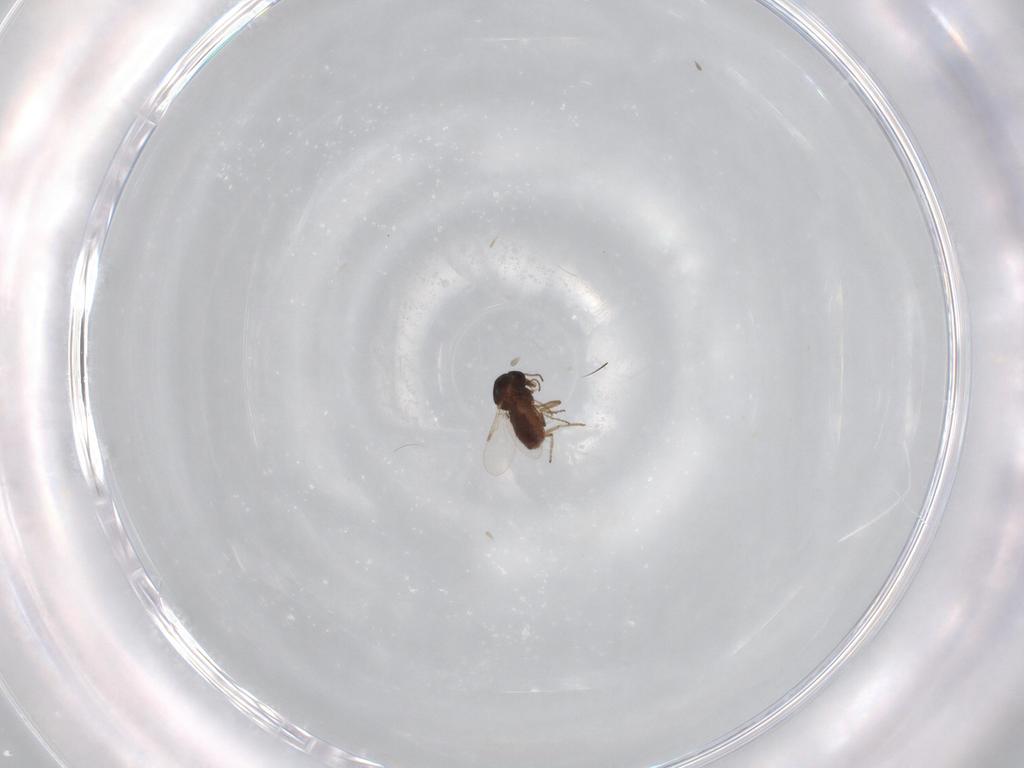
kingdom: Animalia
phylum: Arthropoda
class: Insecta
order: Diptera
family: Ceratopogonidae
